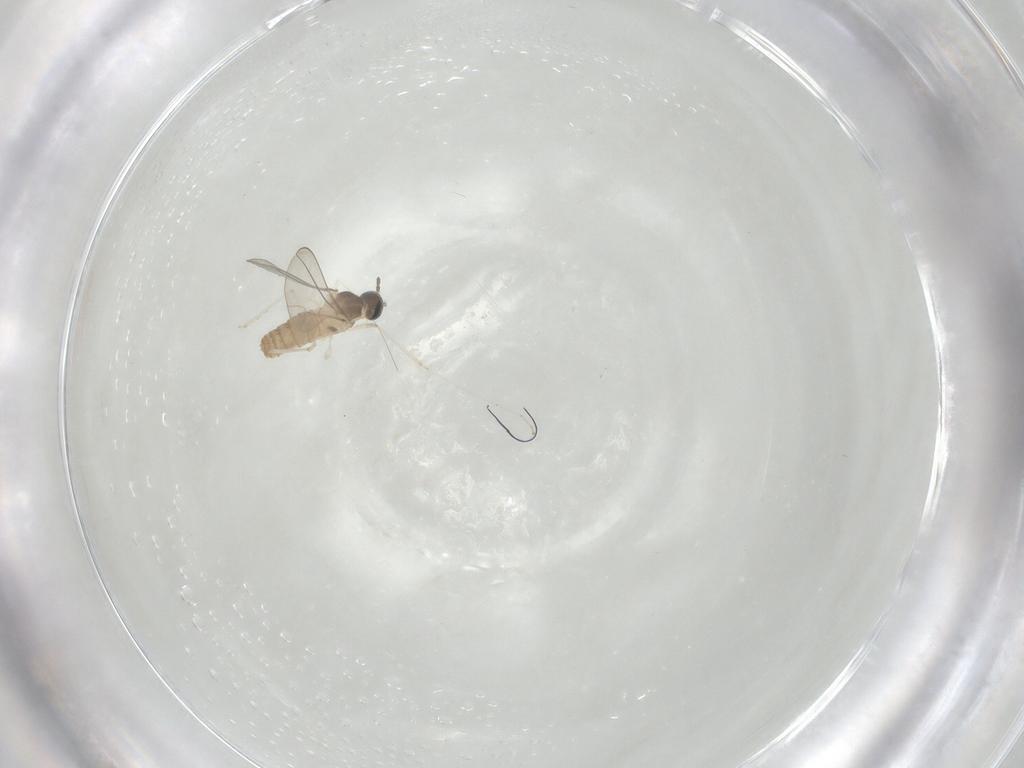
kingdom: Animalia
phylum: Arthropoda
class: Insecta
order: Diptera
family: Cecidomyiidae
